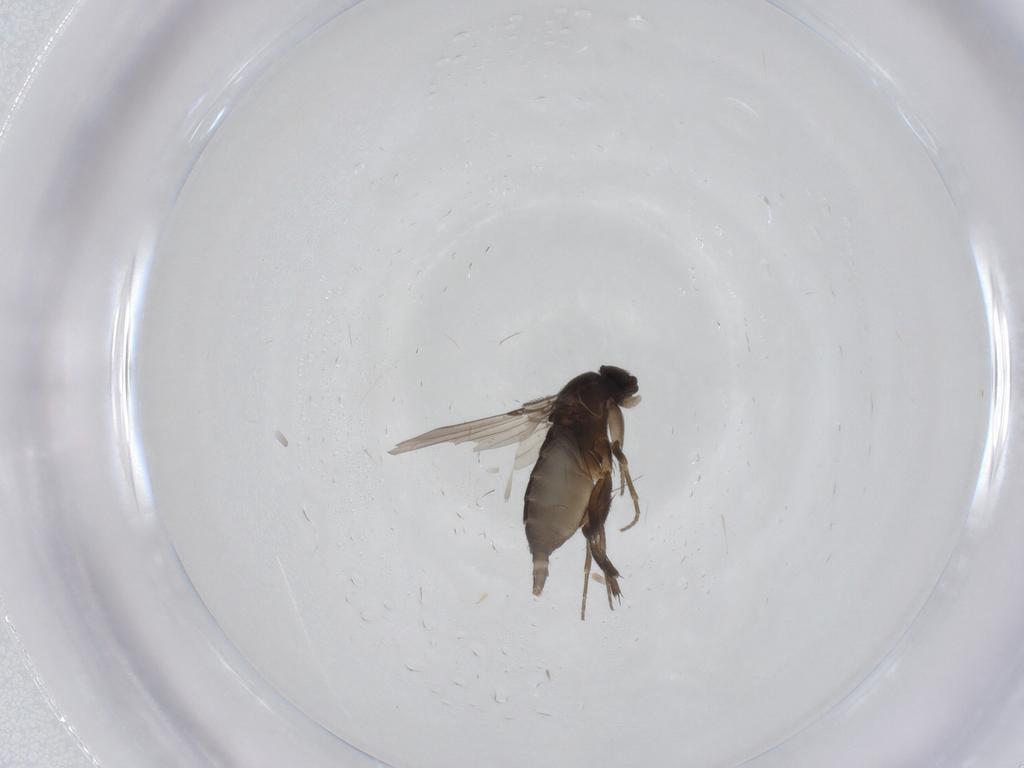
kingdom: Animalia
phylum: Arthropoda
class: Insecta
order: Diptera
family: Phoridae
